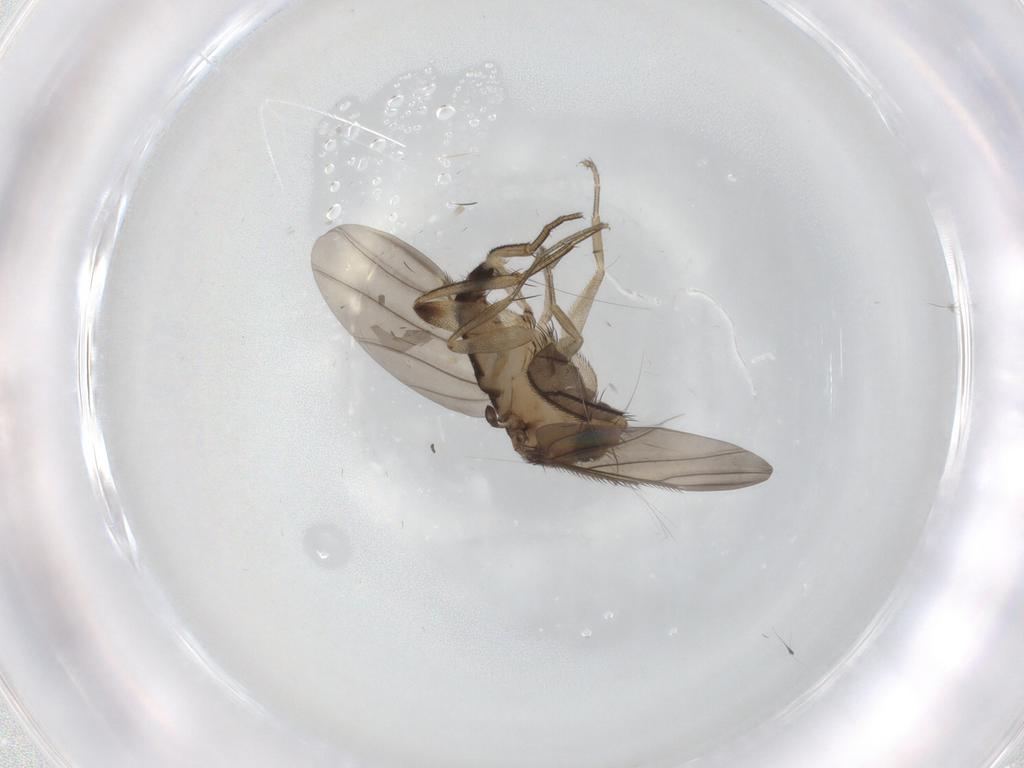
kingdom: Animalia
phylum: Arthropoda
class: Insecta
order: Diptera
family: Phoridae
